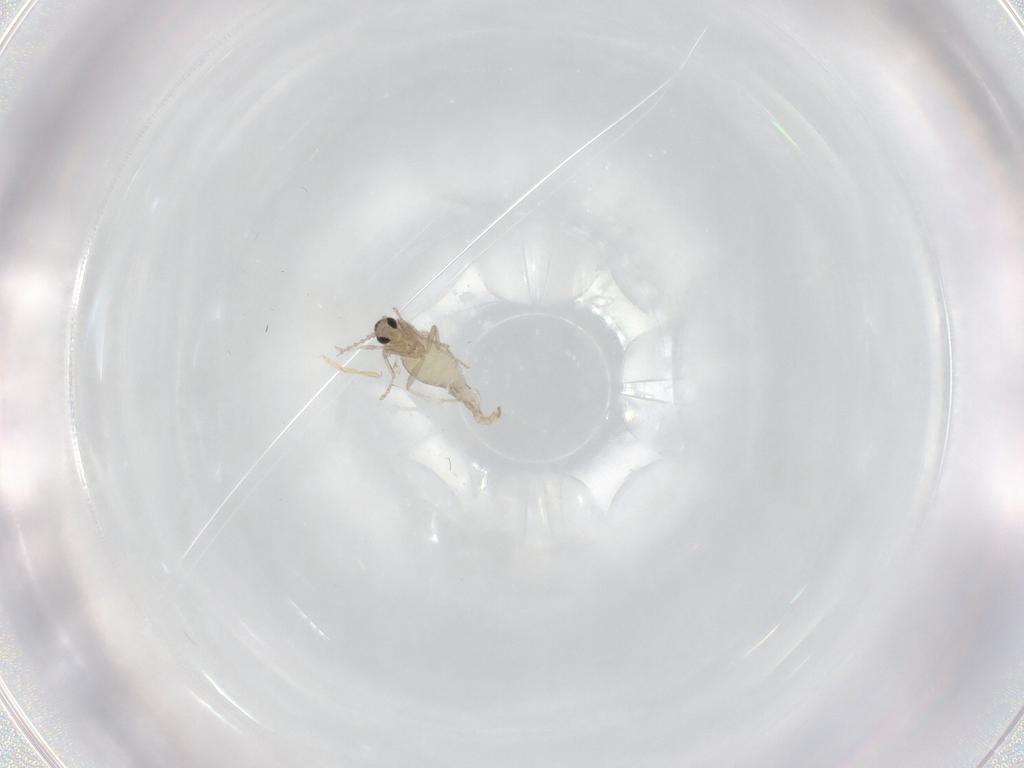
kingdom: Animalia
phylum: Arthropoda
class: Insecta
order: Diptera
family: Cecidomyiidae
